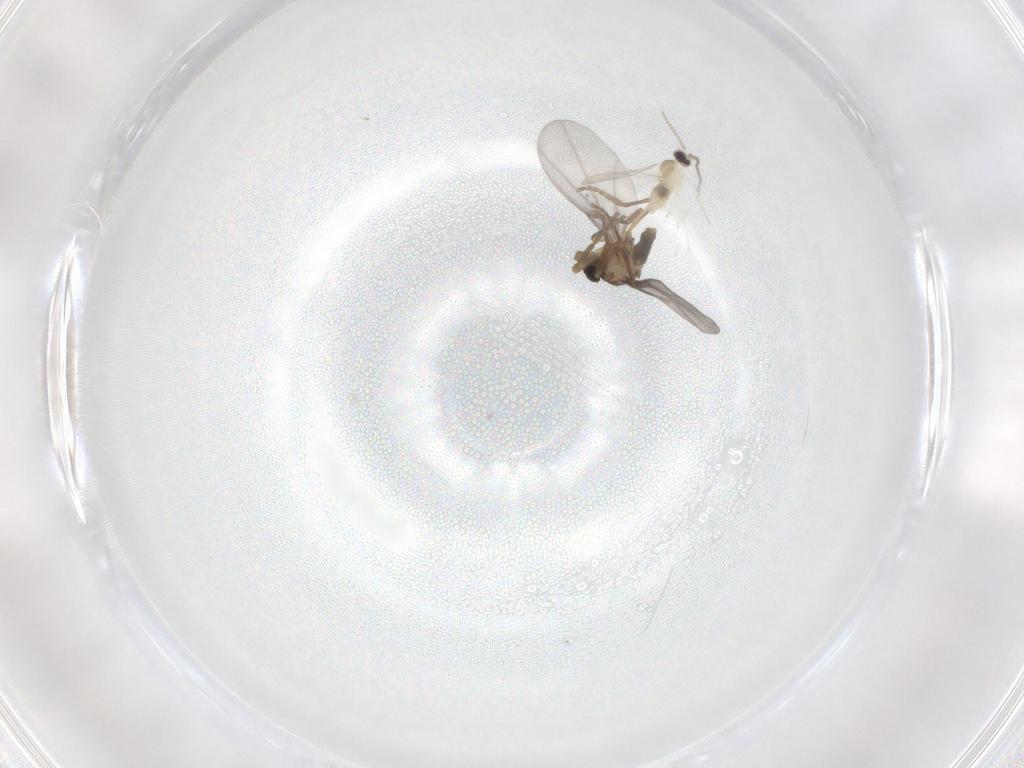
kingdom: Animalia
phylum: Arthropoda
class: Insecta
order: Diptera
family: Phoridae
